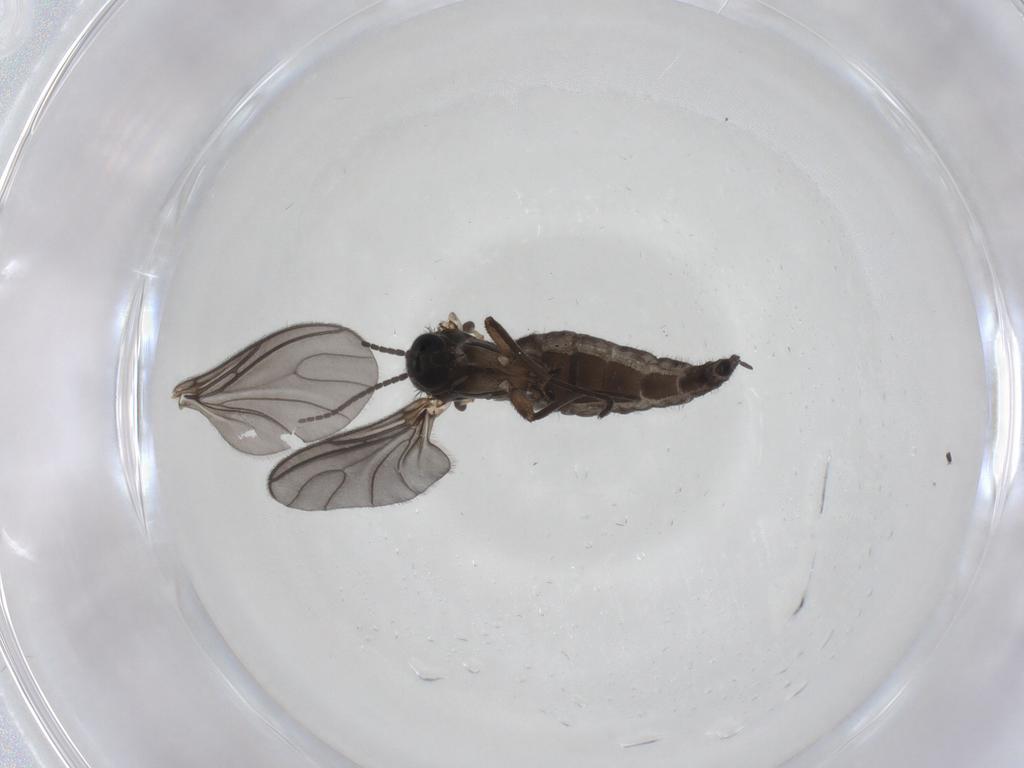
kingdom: Animalia
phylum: Arthropoda
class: Insecta
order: Diptera
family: Sciaridae
